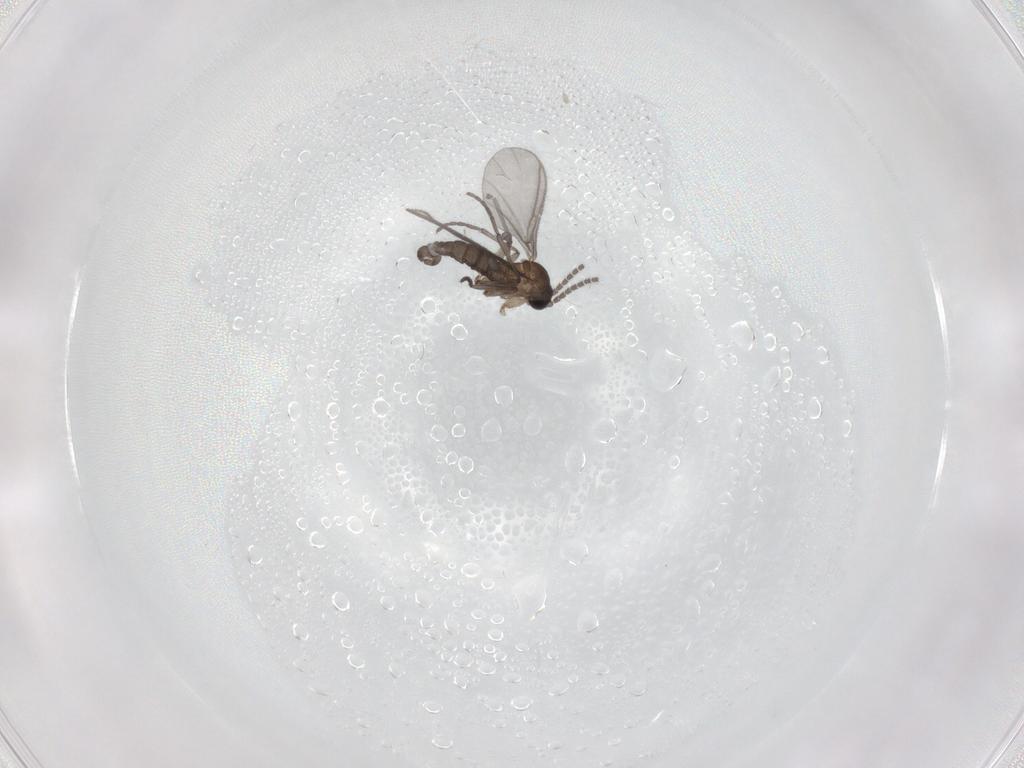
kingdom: Animalia
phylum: Arthropoda
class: Insecta
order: Diptera
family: Sciaridae
